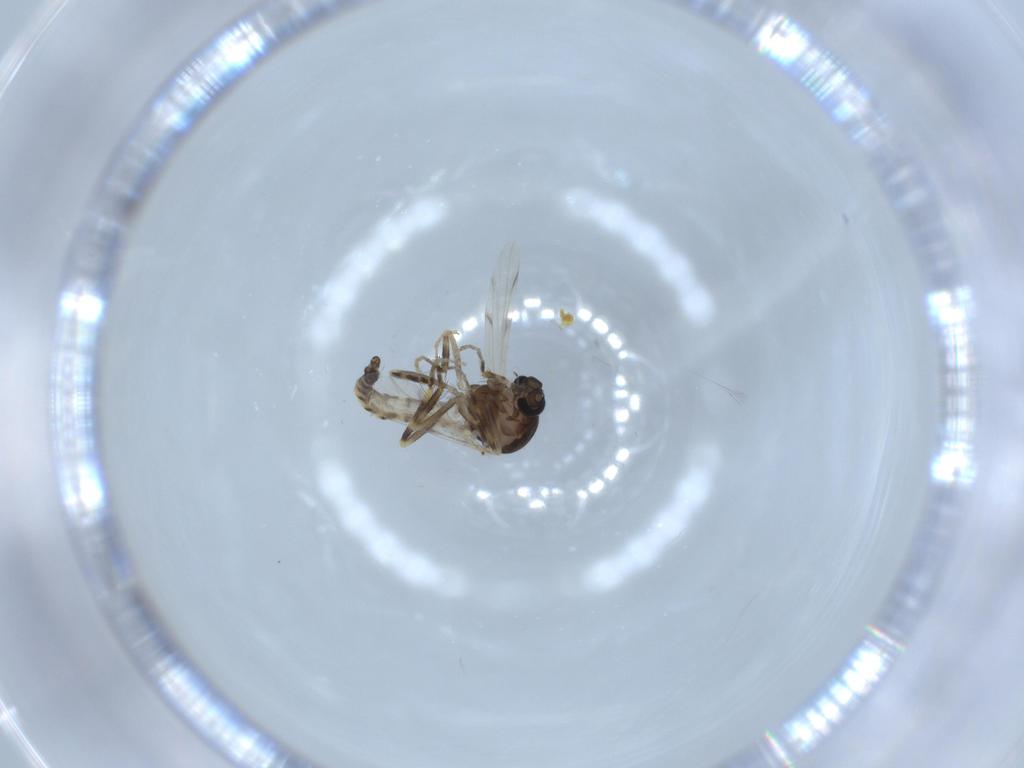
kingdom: Animalia
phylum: Arthropoda
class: Insecta
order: Diptera
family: Ceratopogonidae
